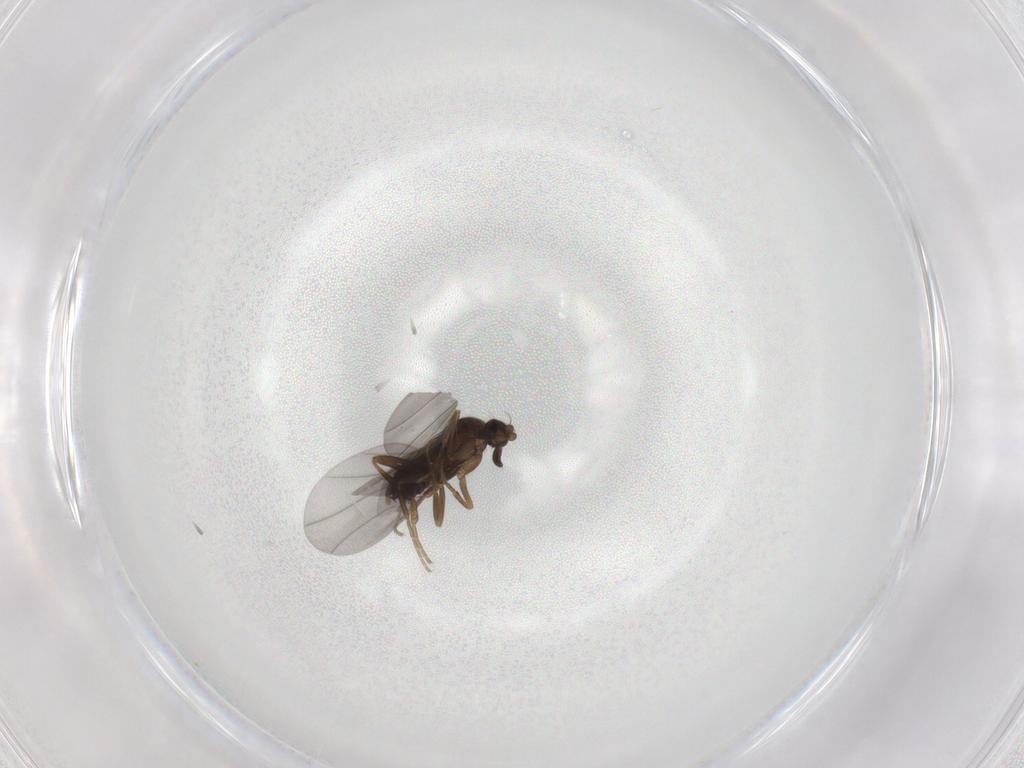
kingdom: Animalia
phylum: Arthropoda
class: Insecta
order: Diptera
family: Phoridae
